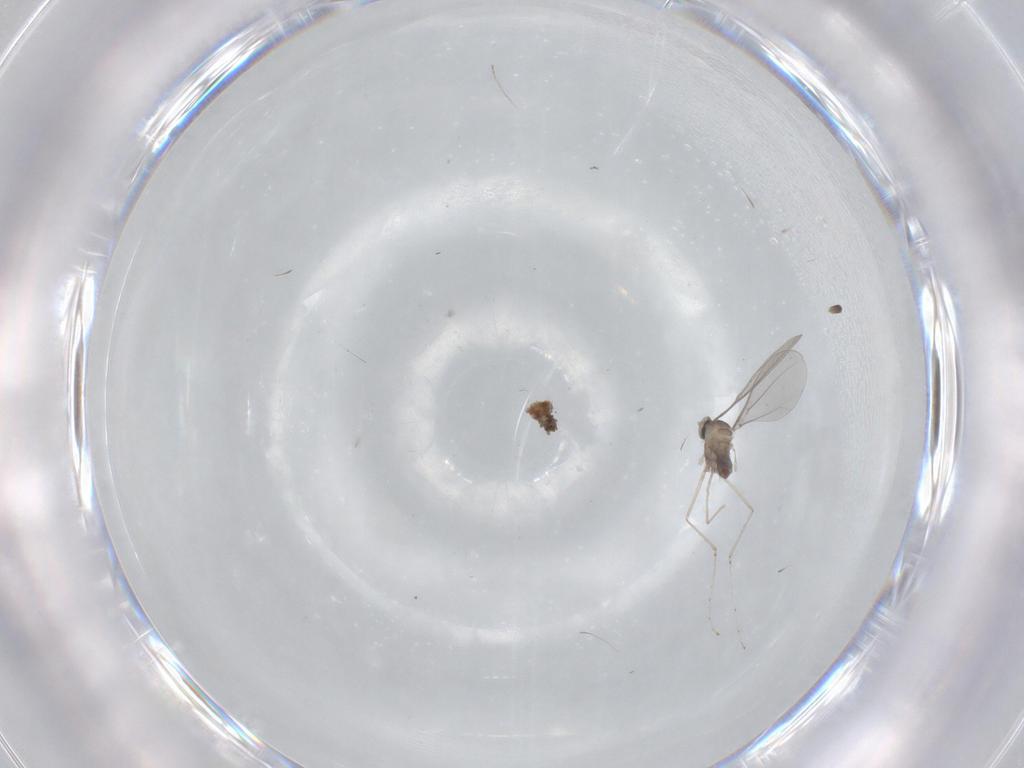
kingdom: Animalia
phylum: Arthropoda
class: Insecta
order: Diptera
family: Cecidomyiidae
